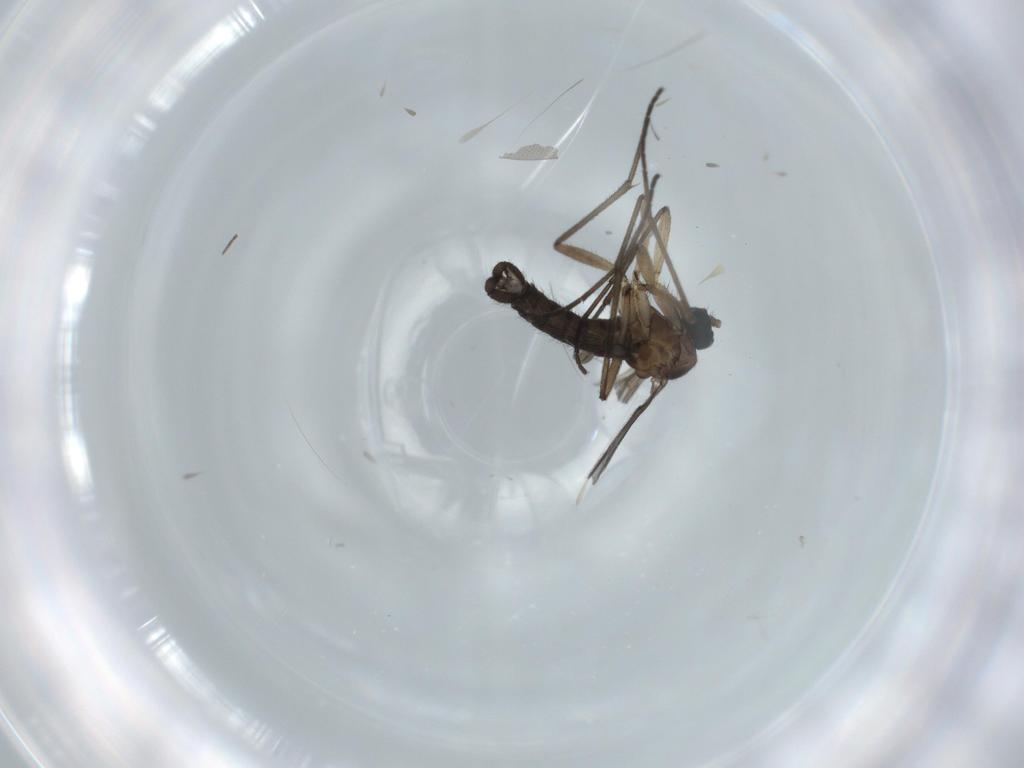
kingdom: Animalia
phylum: Arthropoda
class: Insecta
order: Diptera
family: Sciaridae
